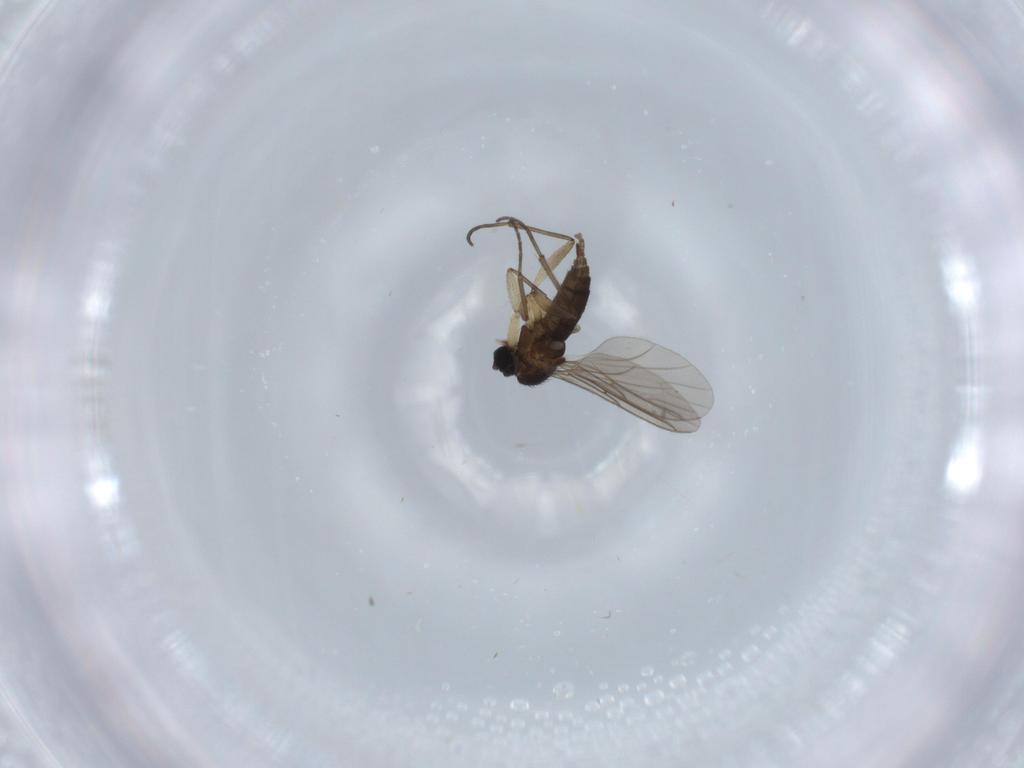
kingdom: Animalia
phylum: Arthropoda
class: Insecta
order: Diptera
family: Sciaridae
